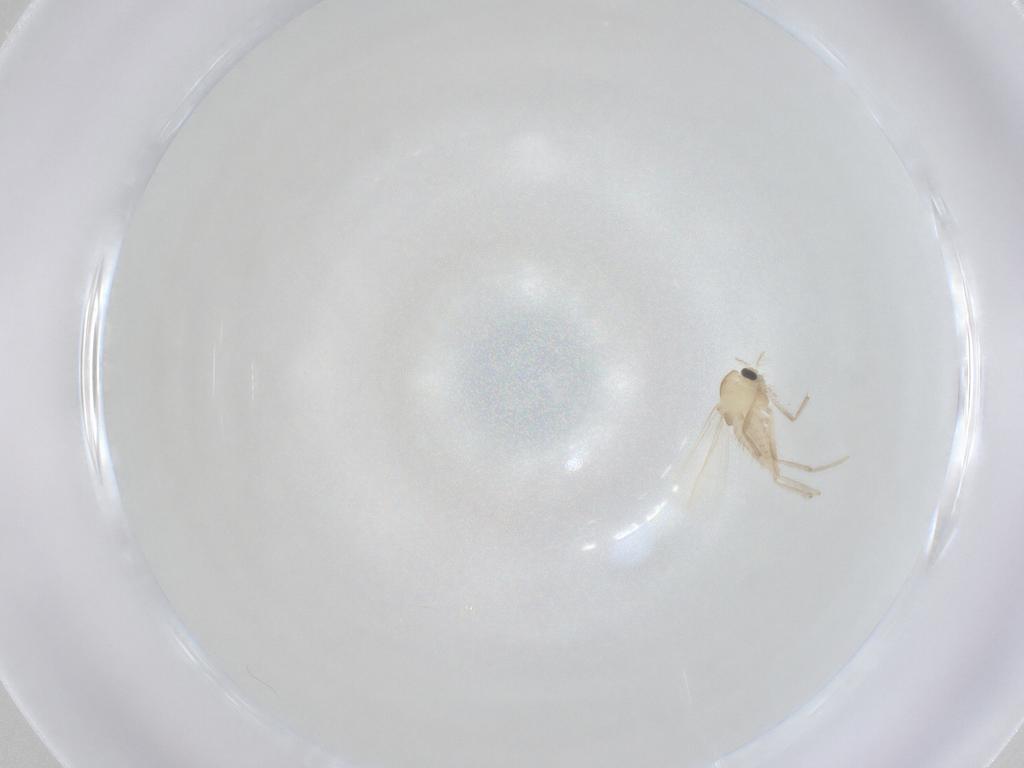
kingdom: Animalia
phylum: Arthropoda
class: Insecta
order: Diptera
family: Chironomidae
